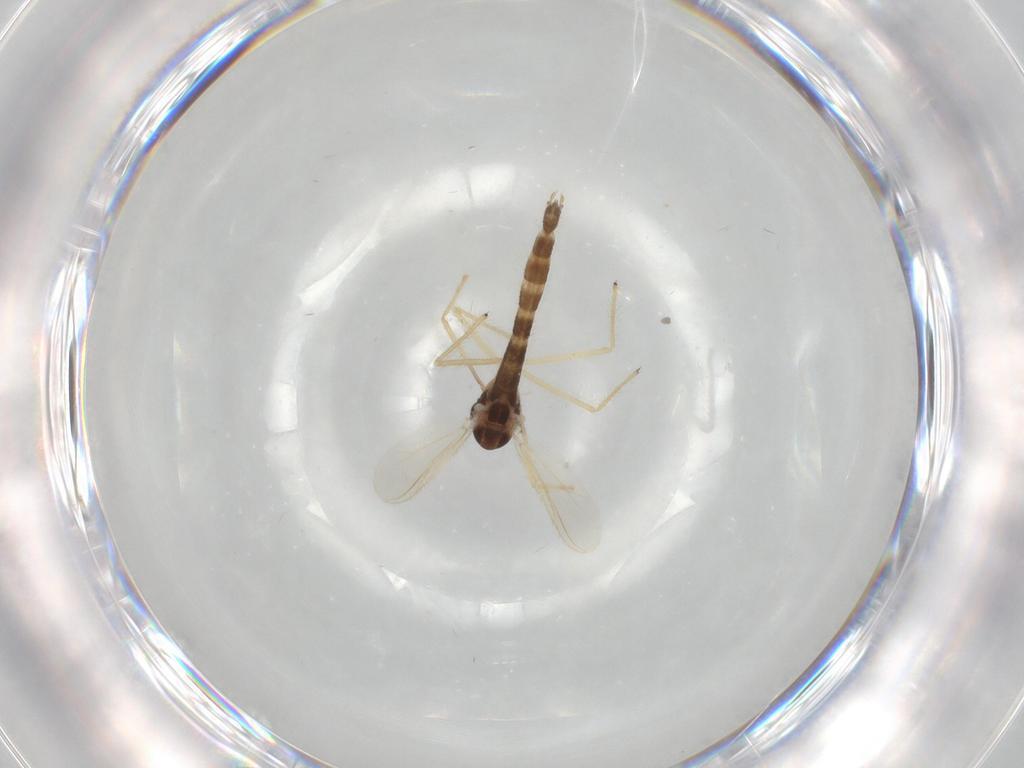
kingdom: Animalia
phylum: Arthropoda
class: Insecta
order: Diptera
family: Chironomidae
